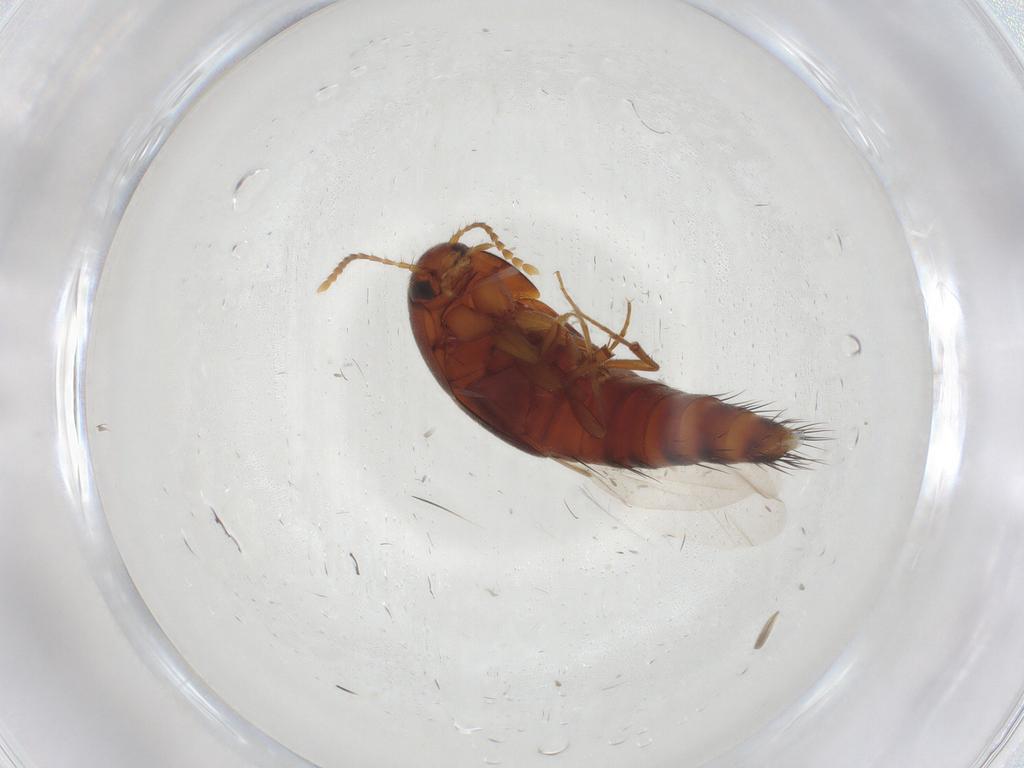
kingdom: Animalia
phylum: Arthropoda
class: Insecta
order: Coleoptera
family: Staphylinidae
